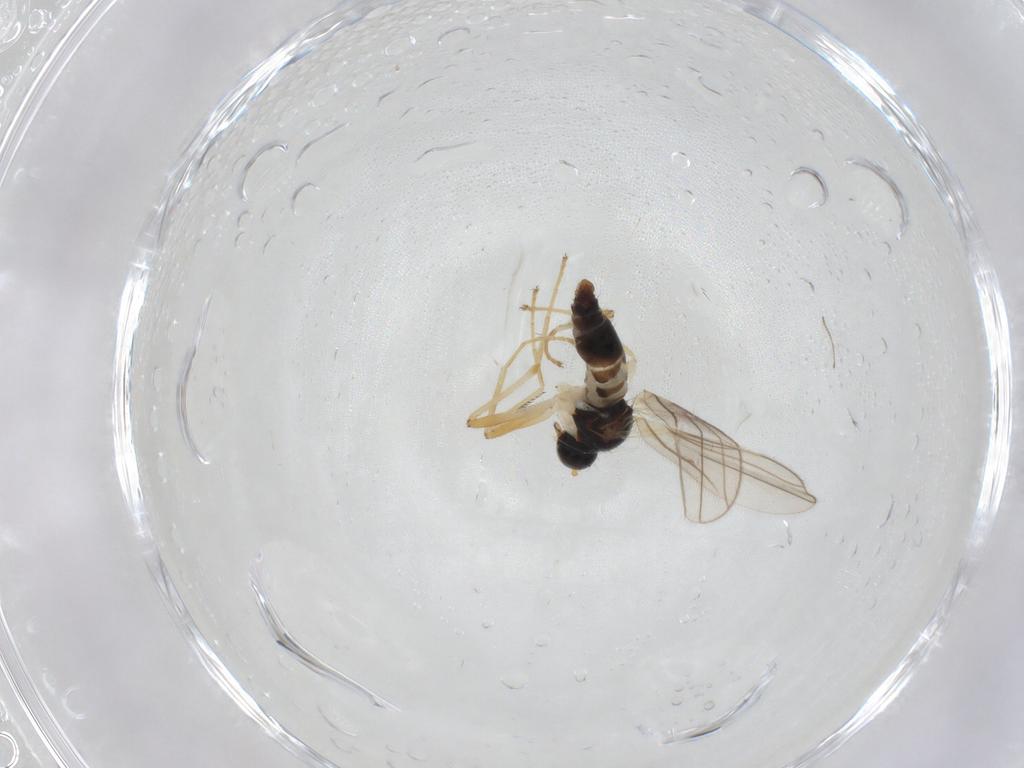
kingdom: Animalia
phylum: Arthropoda
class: Insecta
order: Diptera
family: Hybotidae
